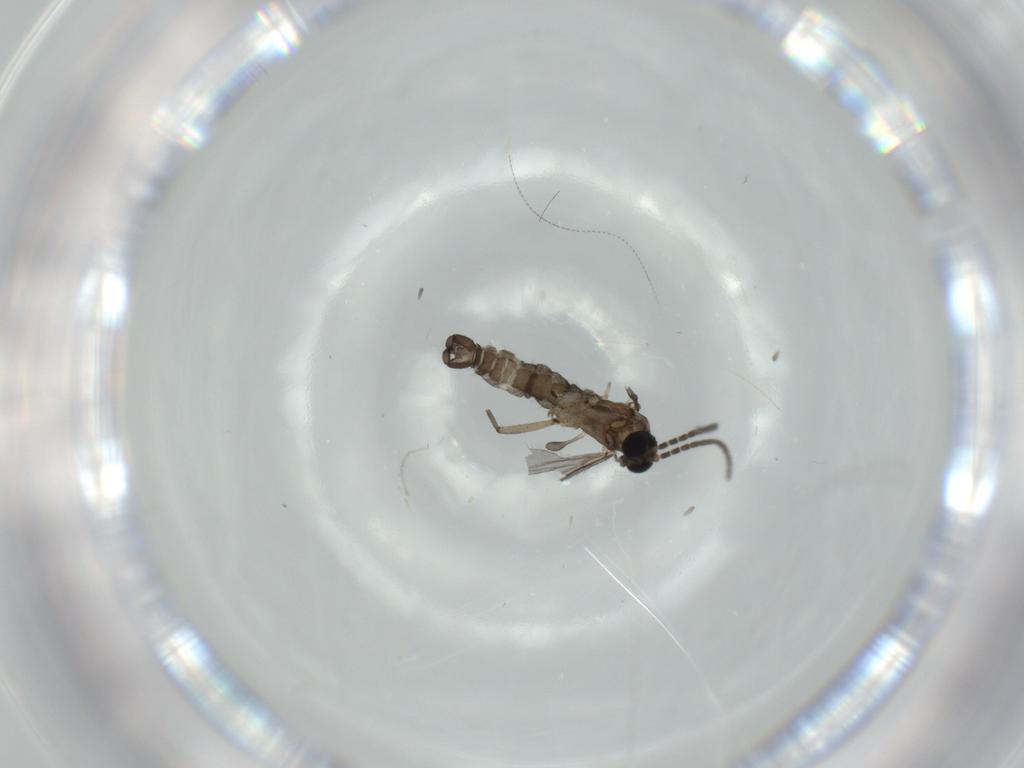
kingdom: Animalia
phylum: Arthropoda
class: Insecta
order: Diptera
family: Sciaridae
